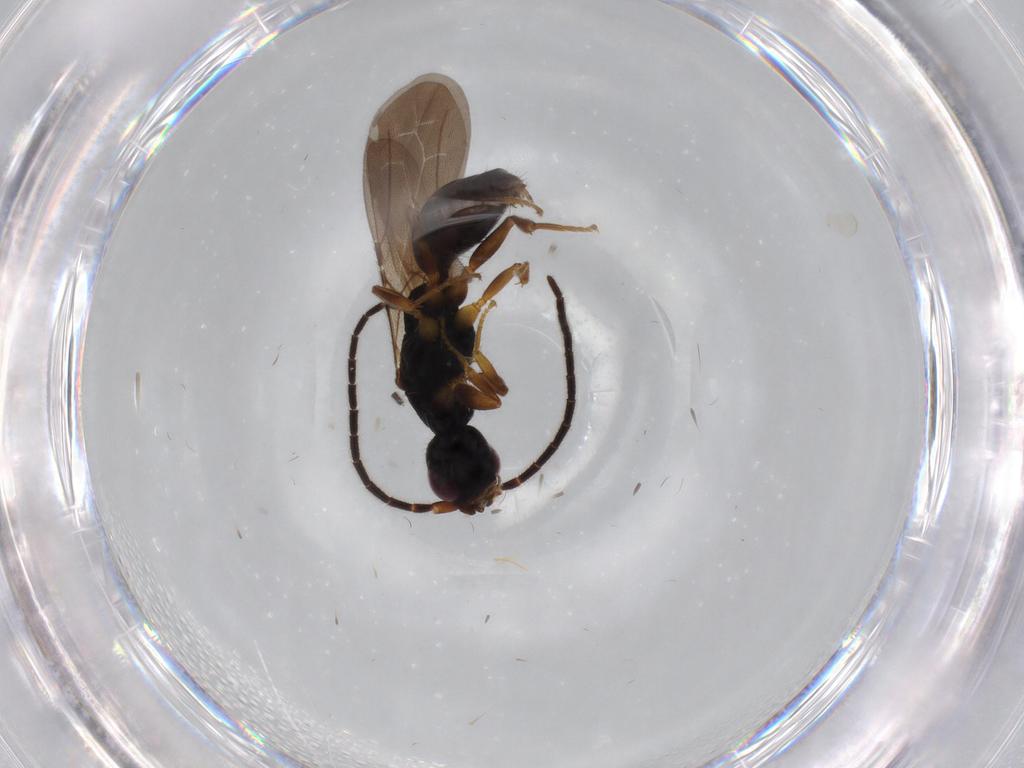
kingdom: Animalia
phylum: Arthropoda
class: Insecta
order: Hymenoptera
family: Bethylidae
